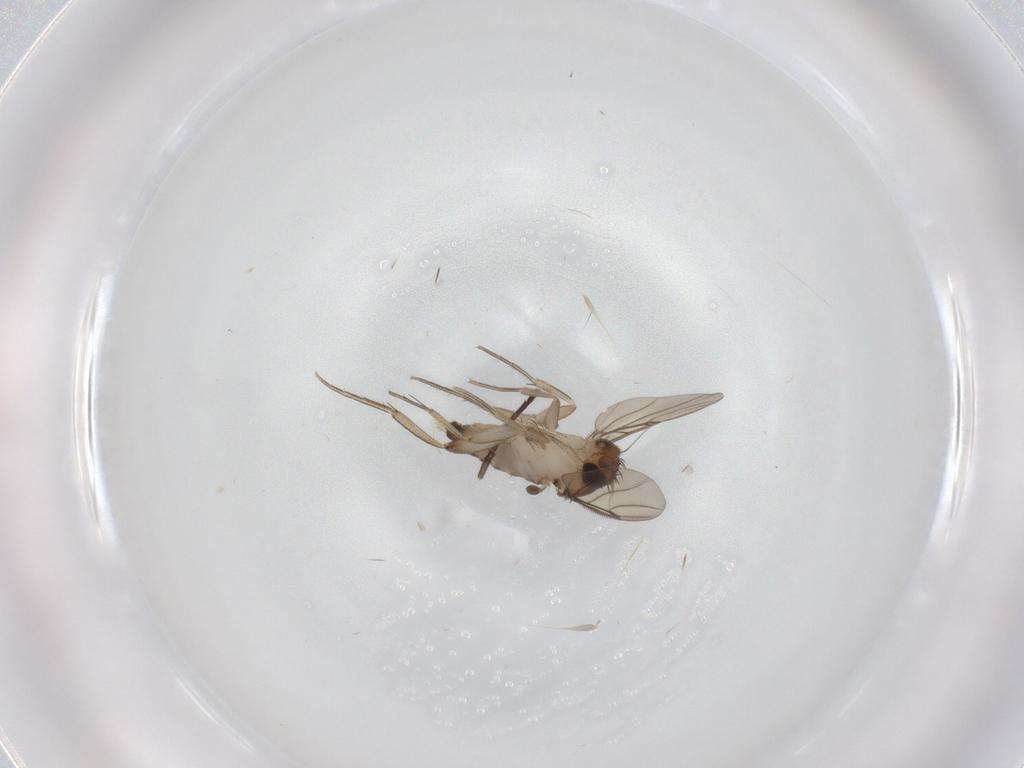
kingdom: Animalia
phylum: Arthropoda
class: Insecta
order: Diptera
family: Phoridae
